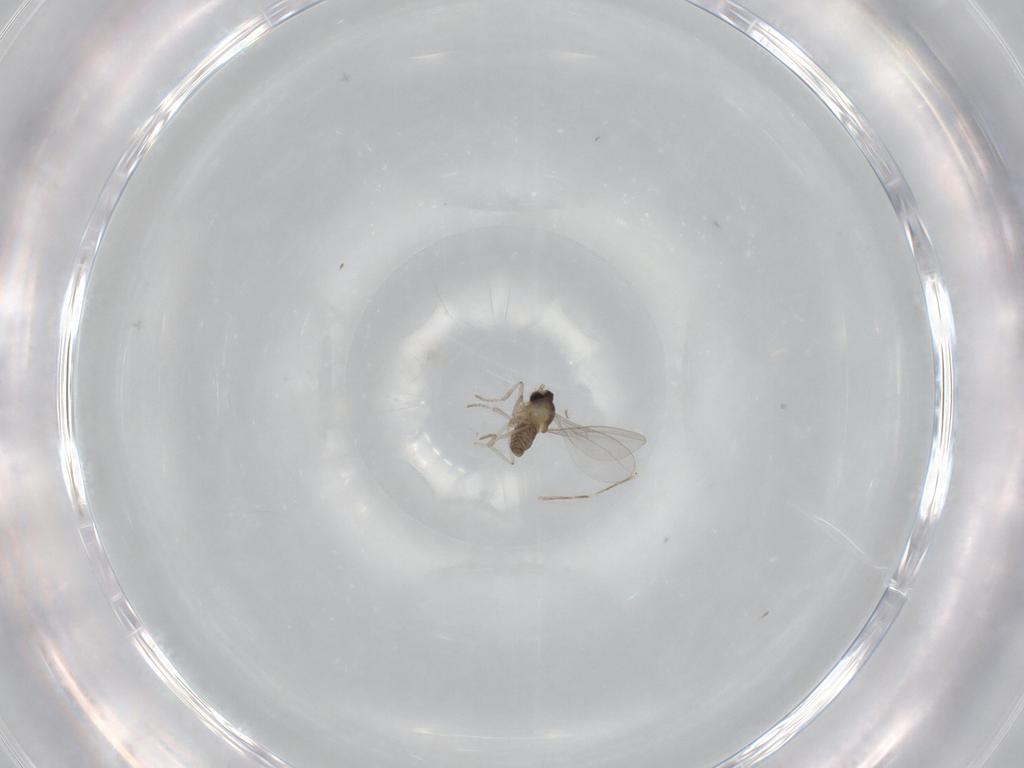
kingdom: Animalia
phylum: Arthropoda
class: Insecta
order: Diptera
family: Cecidomyiidae
